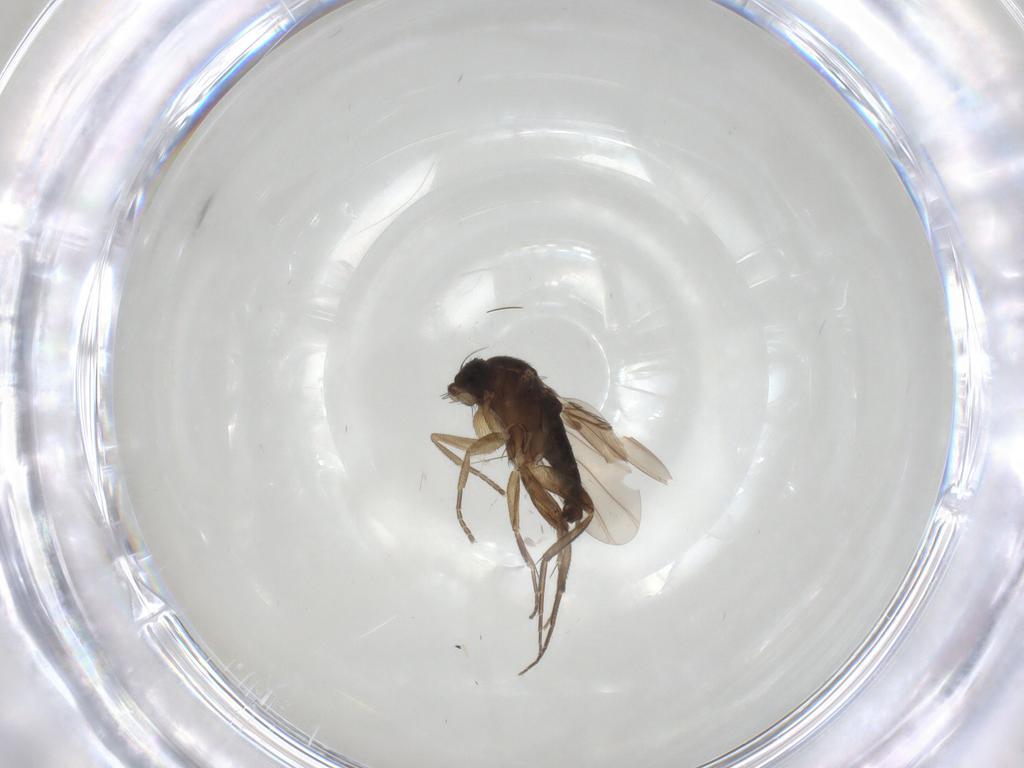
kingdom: Animalia
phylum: Arthropoda
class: Insecta
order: Diptera
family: Phoridae
